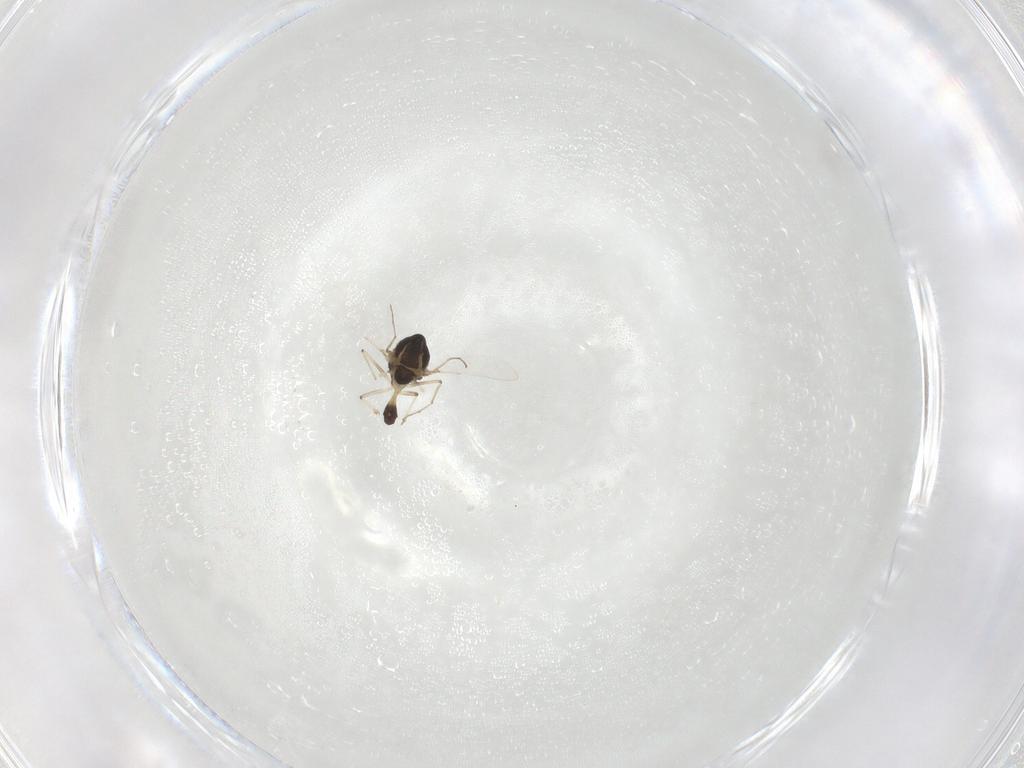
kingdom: Animalia
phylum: Arthropoda
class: Insecta
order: Diptera
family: Chironomidae
